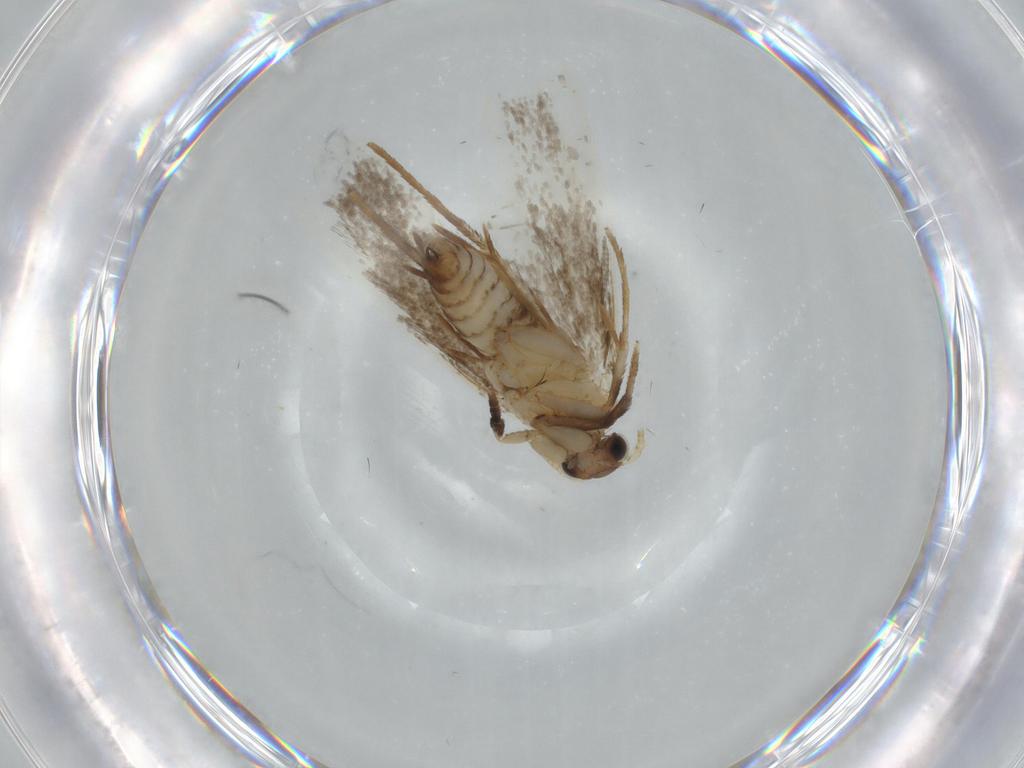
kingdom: Animalia
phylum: Arthropoda
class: Insecta
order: Lepidoptera
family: Tineidae
